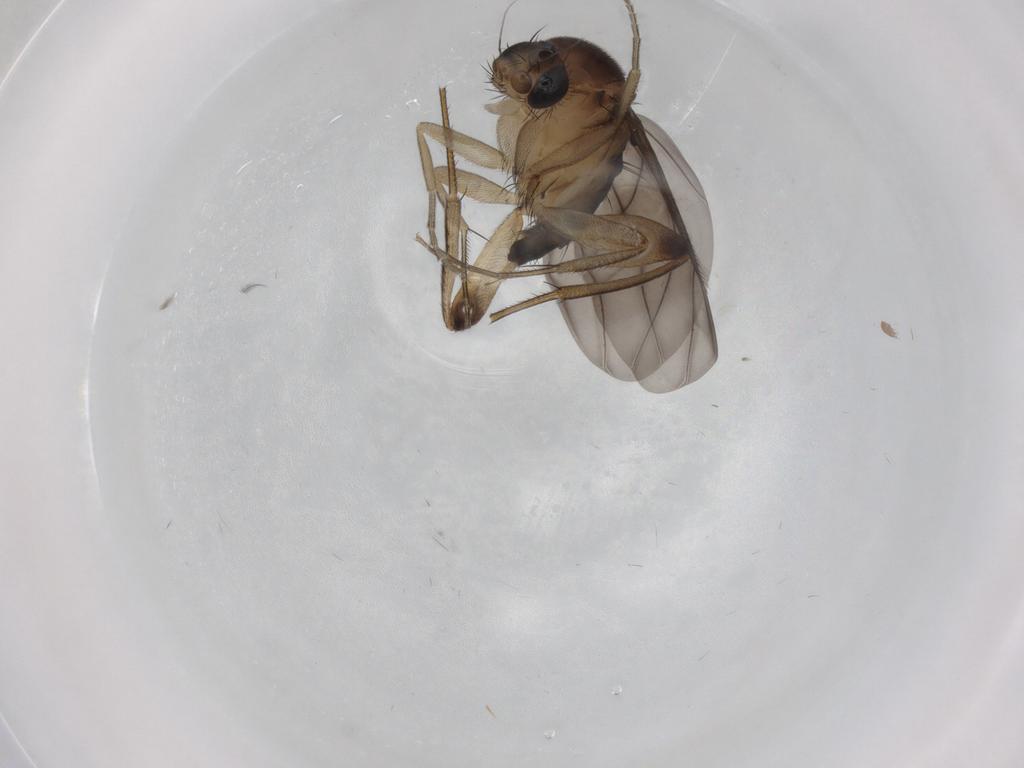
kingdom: Animalia
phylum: Arthropoda
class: Insecta
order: Diptera
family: Phoridae
